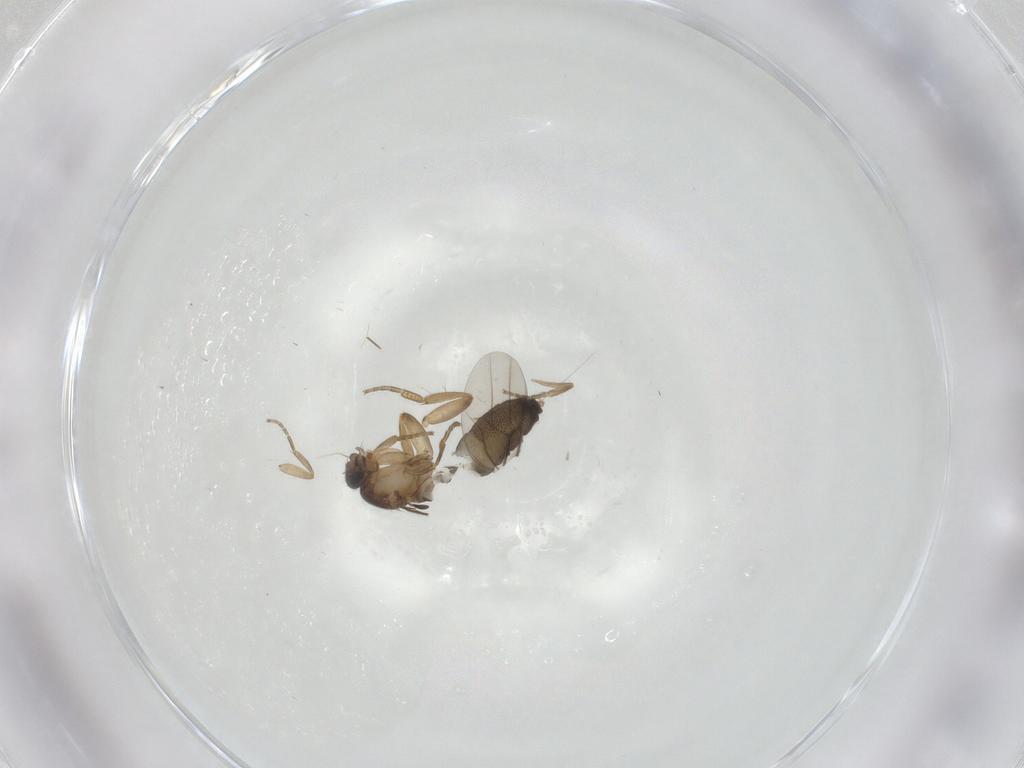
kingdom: Animalia
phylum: Arthropoda
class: Insecta
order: Diptera
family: Phoridae
